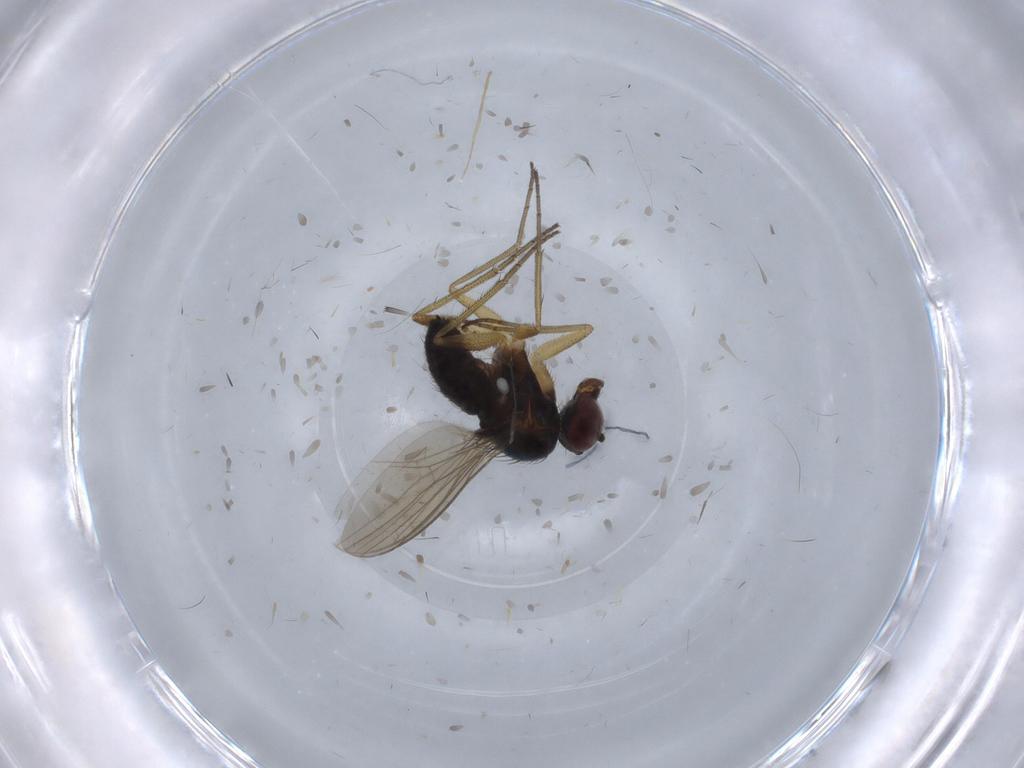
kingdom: Animalia
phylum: Arthropoda
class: Insecta
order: Diptera
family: Dolichopodidae
